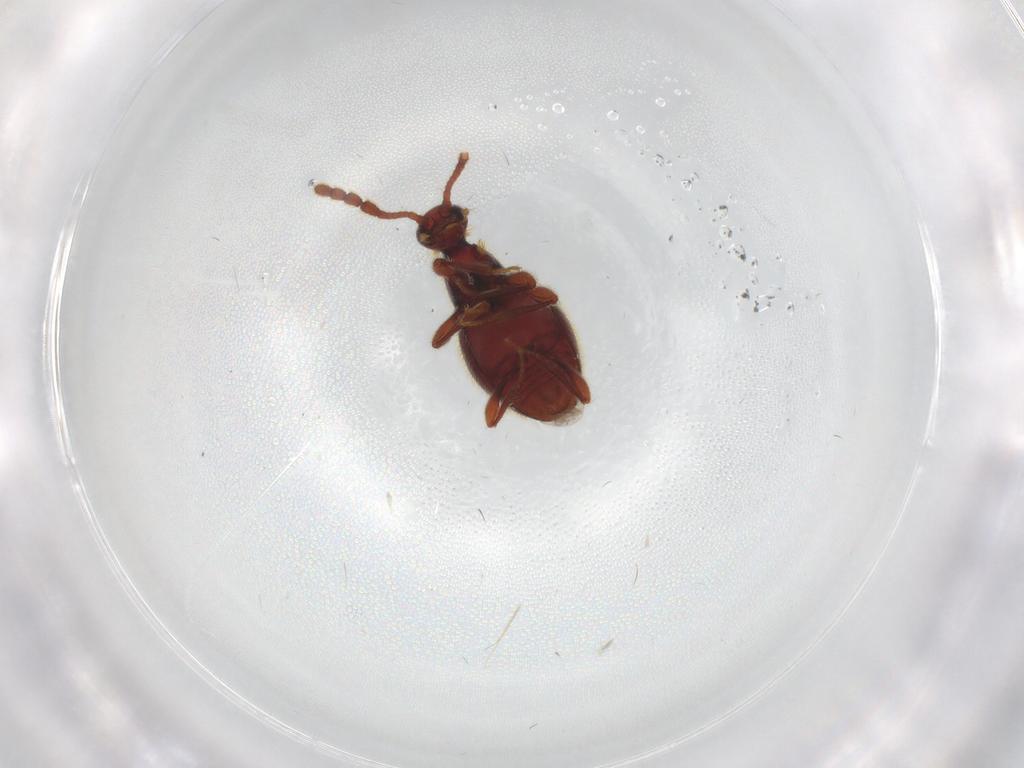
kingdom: Animalia
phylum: Arthropoda
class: Insecta
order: Coleoptera
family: Staphylinidae
